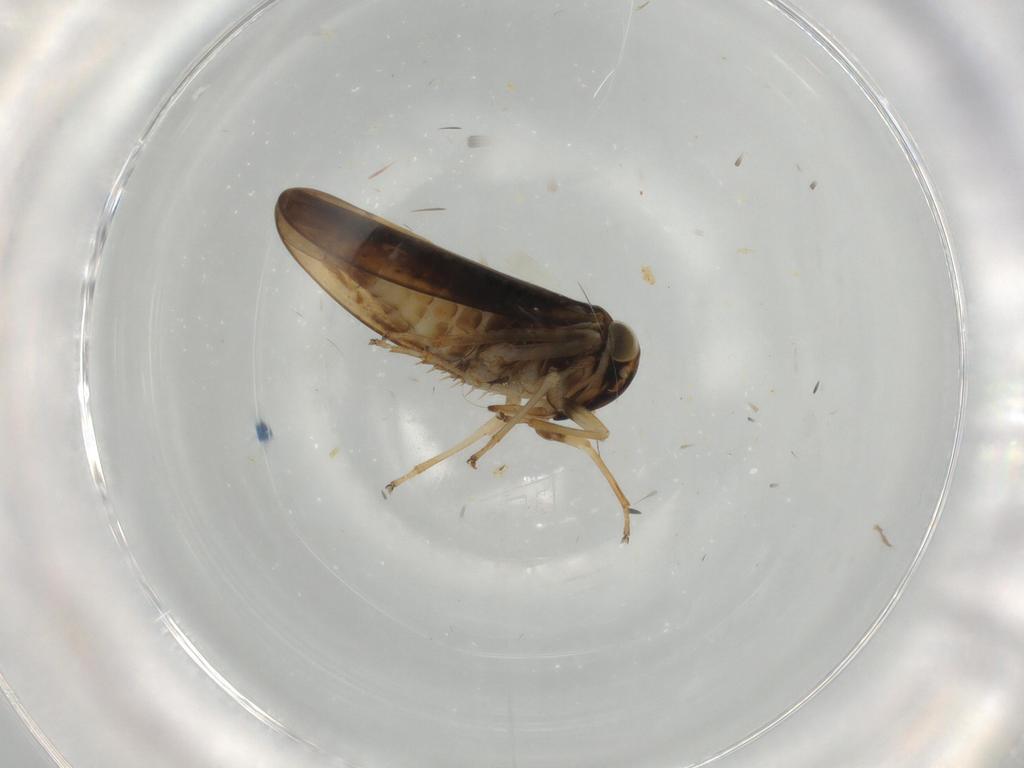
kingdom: Animalia
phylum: Arthropoda
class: Insecta
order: Hemiptera
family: Cicadellidae
